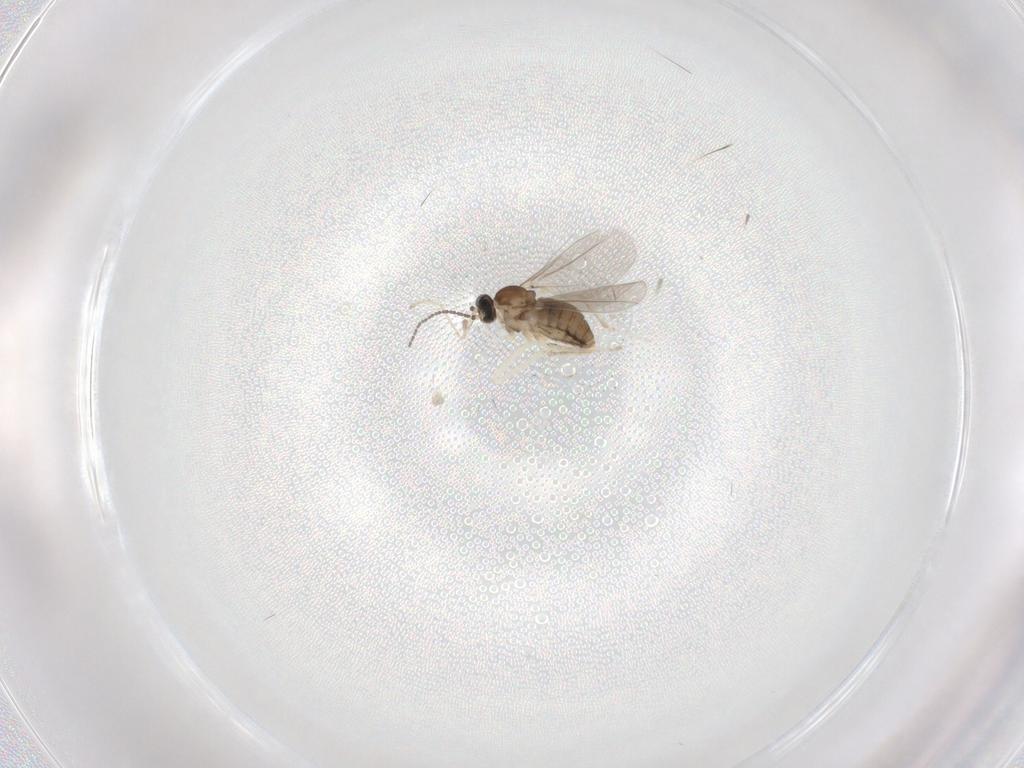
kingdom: Animalia
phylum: Arthropoda
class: Insecta
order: Diptera
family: Cecidomyiidae
